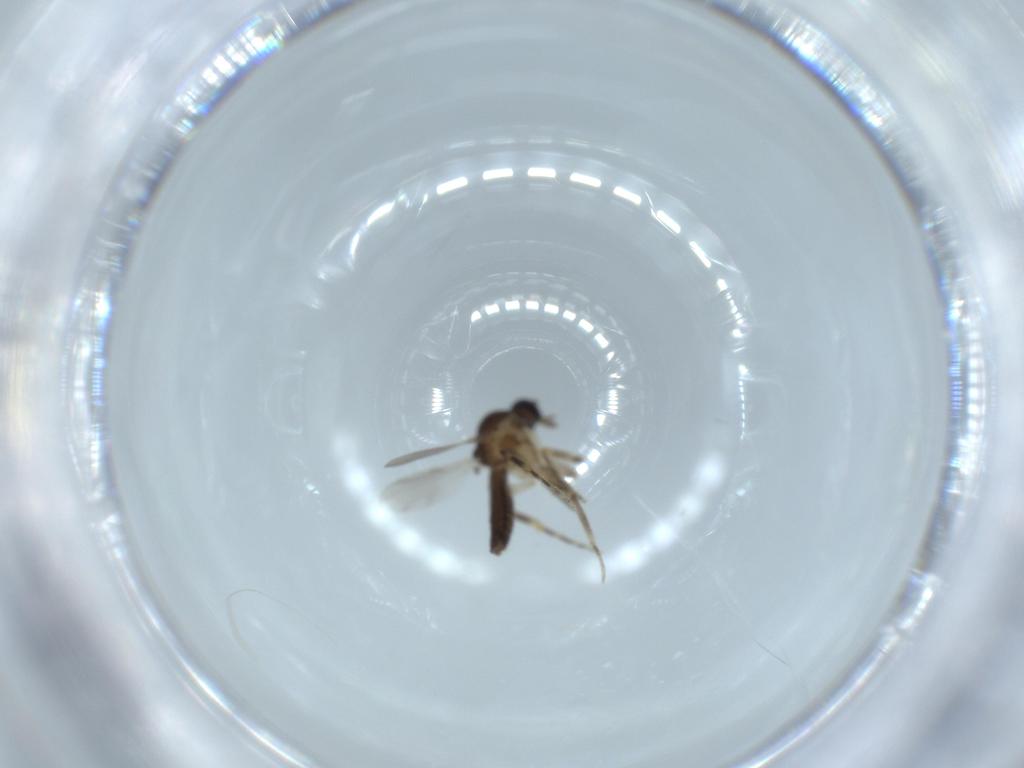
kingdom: Animalia
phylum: Arthropoda
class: Insecta
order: Diptera
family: Ceratopogonidae
